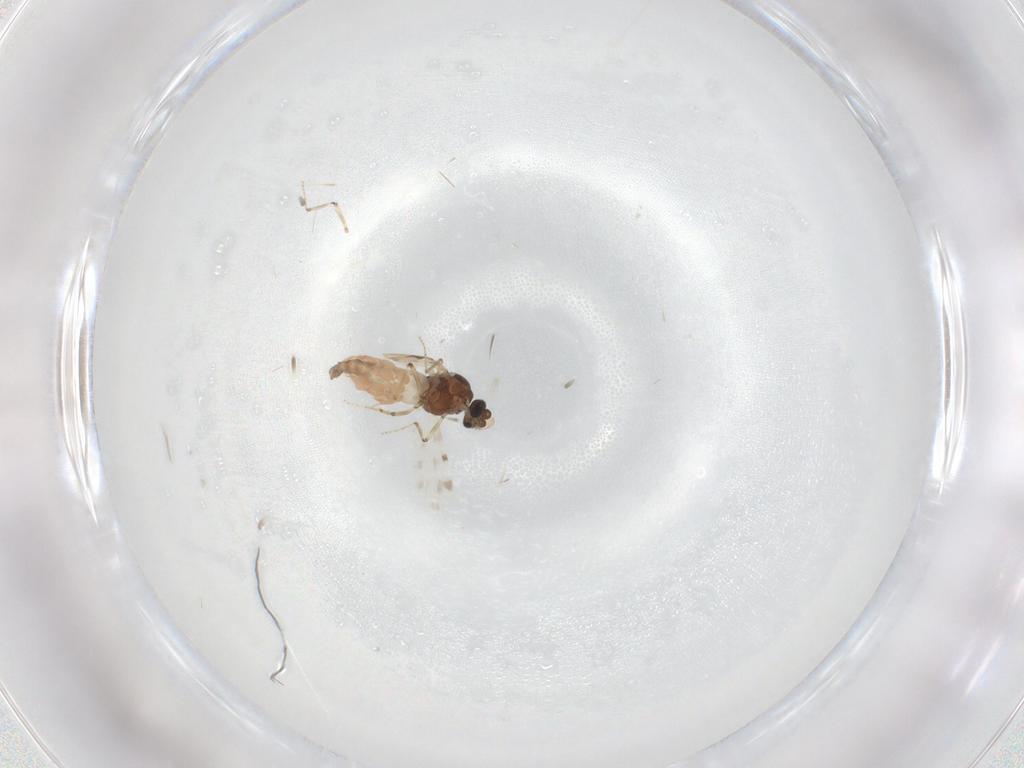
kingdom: Animalia
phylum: Arthropoda
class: Insecta
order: Diptera
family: Ceratopogonidae
